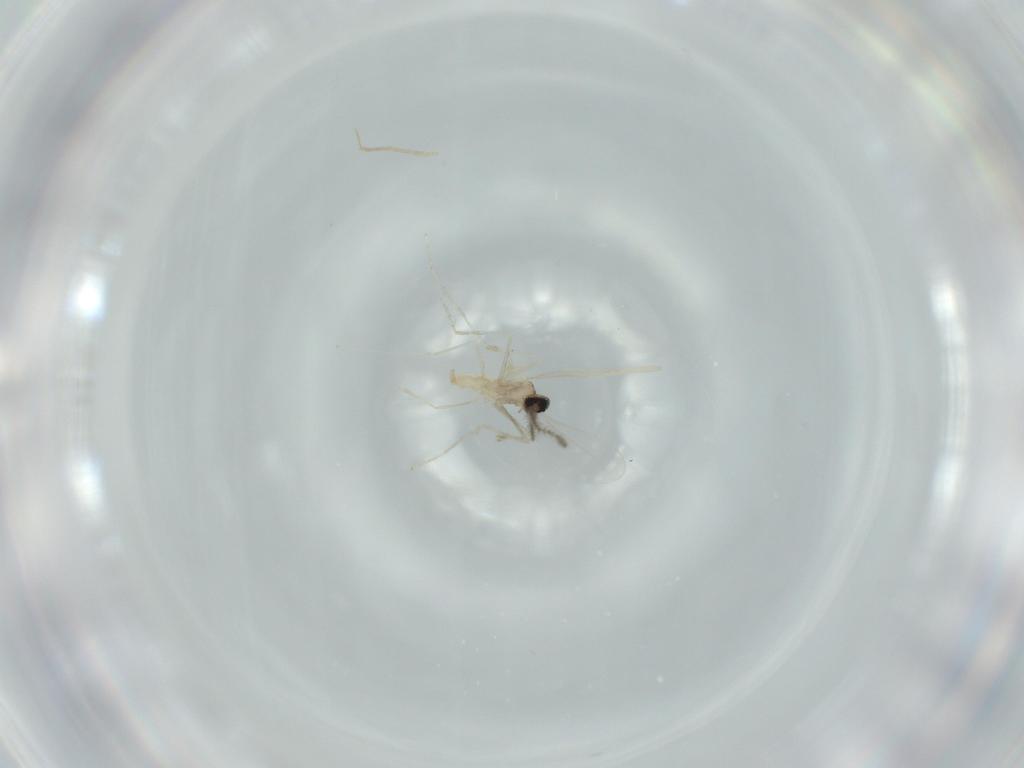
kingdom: Animalia
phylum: Arthropoda
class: Insecta
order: Diptera
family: Cecidomyiidae
